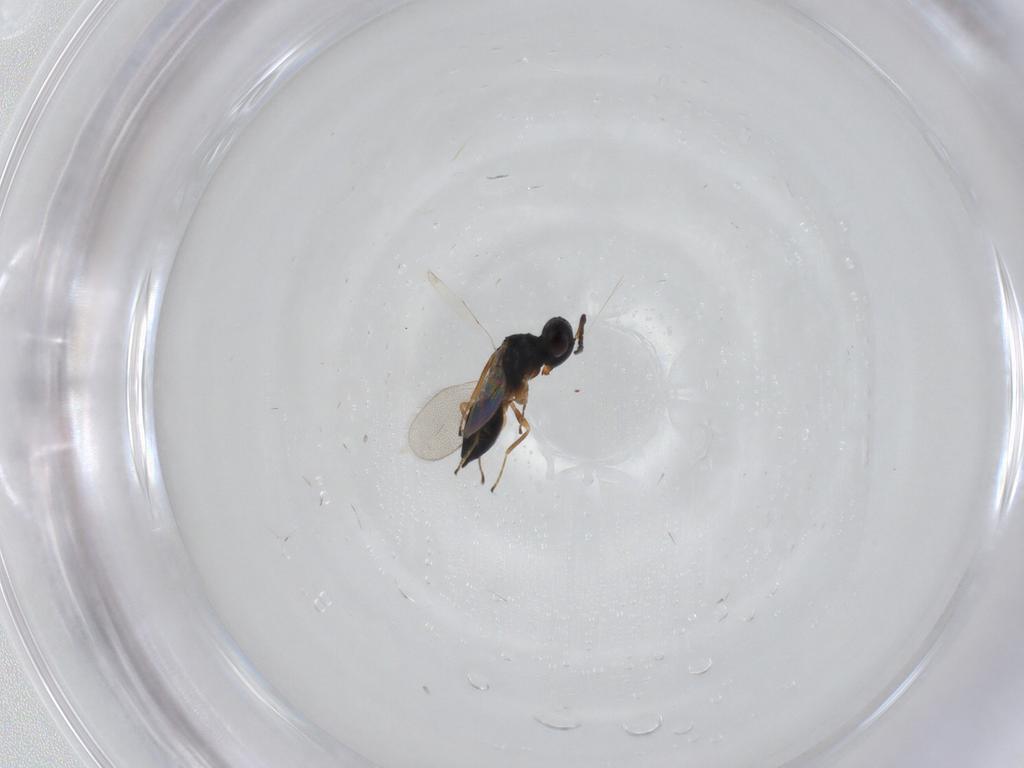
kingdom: Animalia
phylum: Arthropoda
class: Insecta
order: Hymenoptera
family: Pteromalidae
